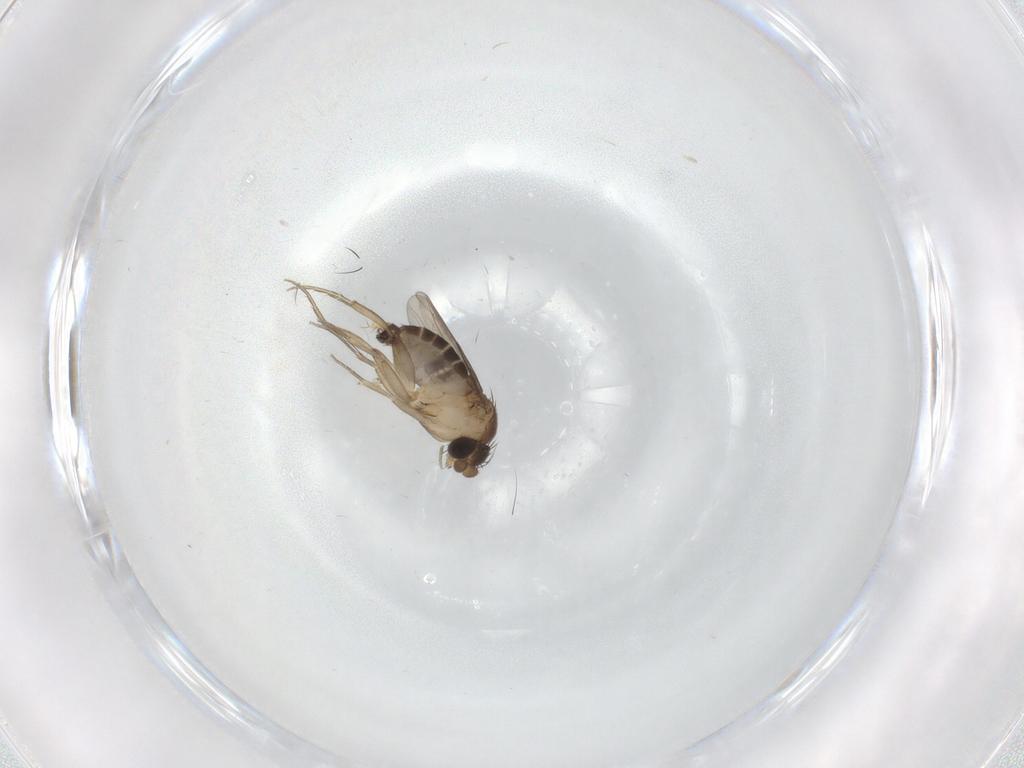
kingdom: Animalia
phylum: Arthropoda
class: Insecta
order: Diptera
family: Phoridae
